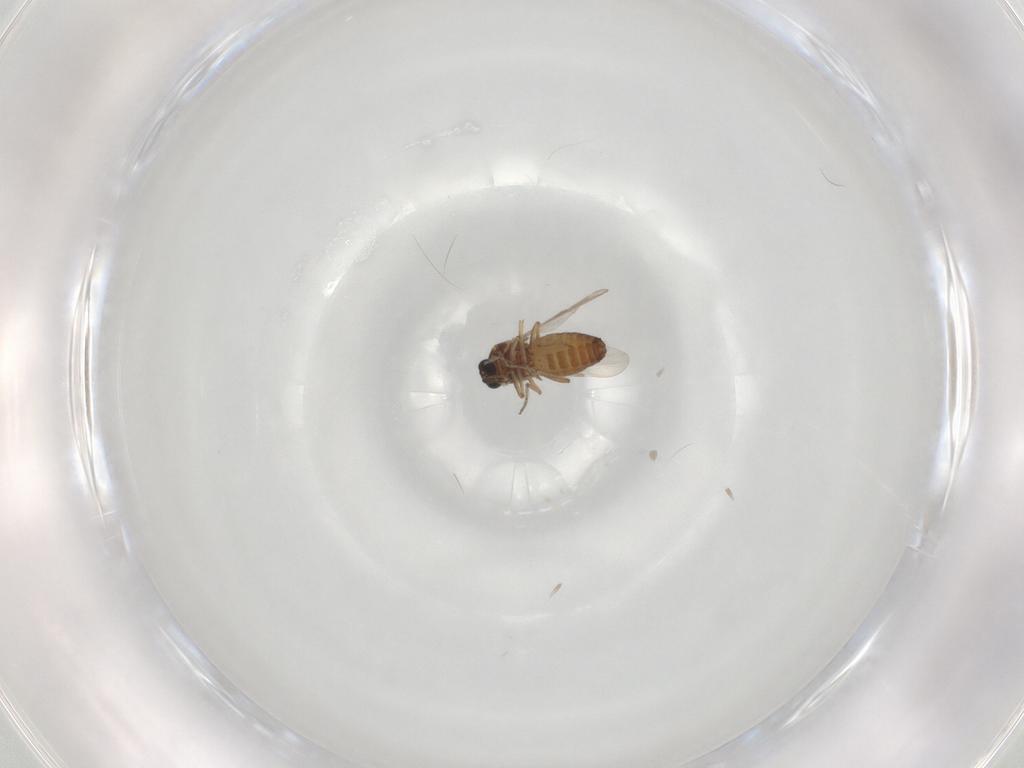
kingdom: Animalia
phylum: Arthropoda
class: Insecta
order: Diptera
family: Ceratopogonidae
